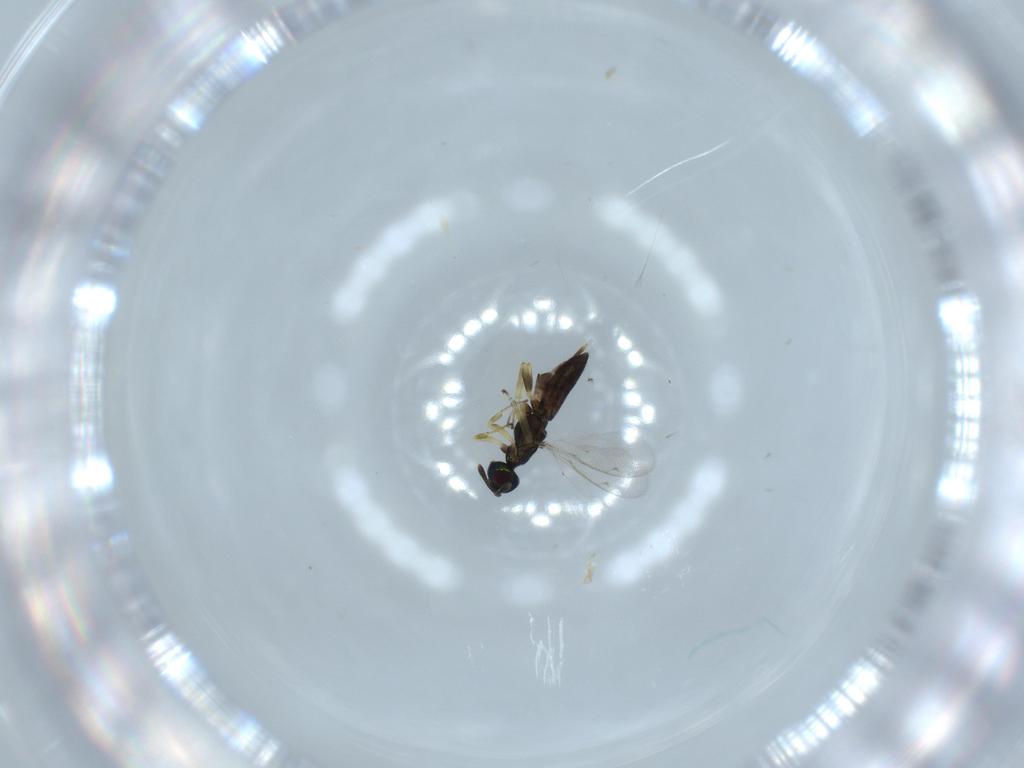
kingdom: Animalia
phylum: Arthropoda
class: Insecta
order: Hymenoptera
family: Eupelmidae
